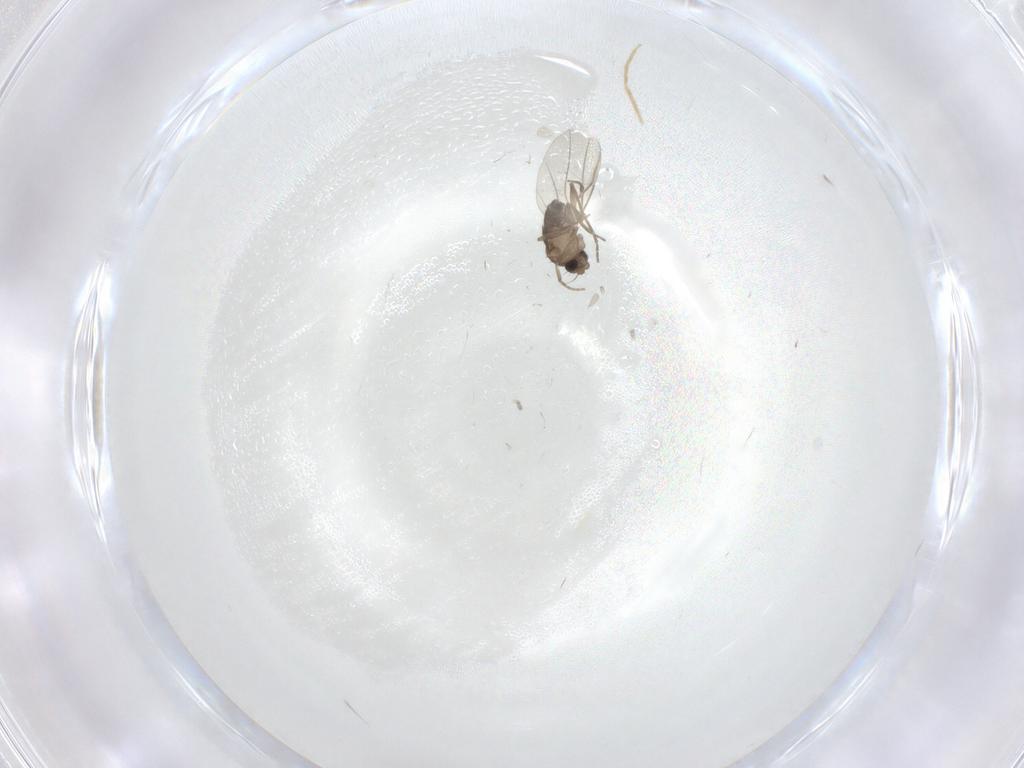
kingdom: Animalia
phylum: Arthropoda
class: Insecta
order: Diptera
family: Phoridae
